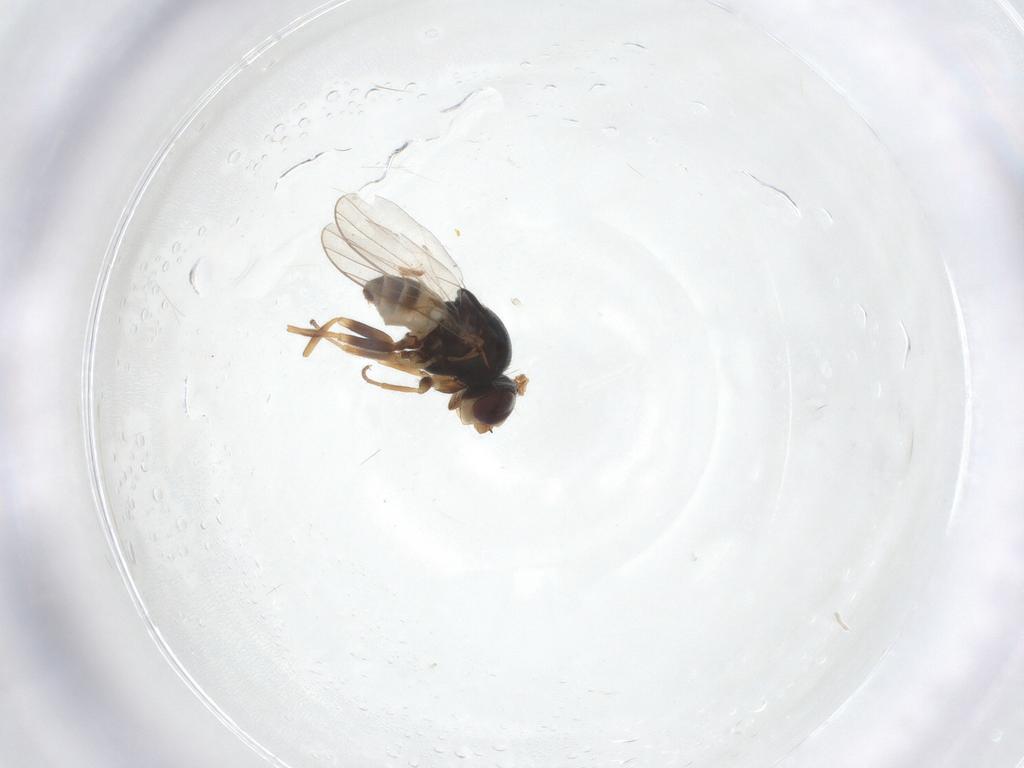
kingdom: Animalia
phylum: Arthropoda
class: Insecta
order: Diptera
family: Chloropidae
